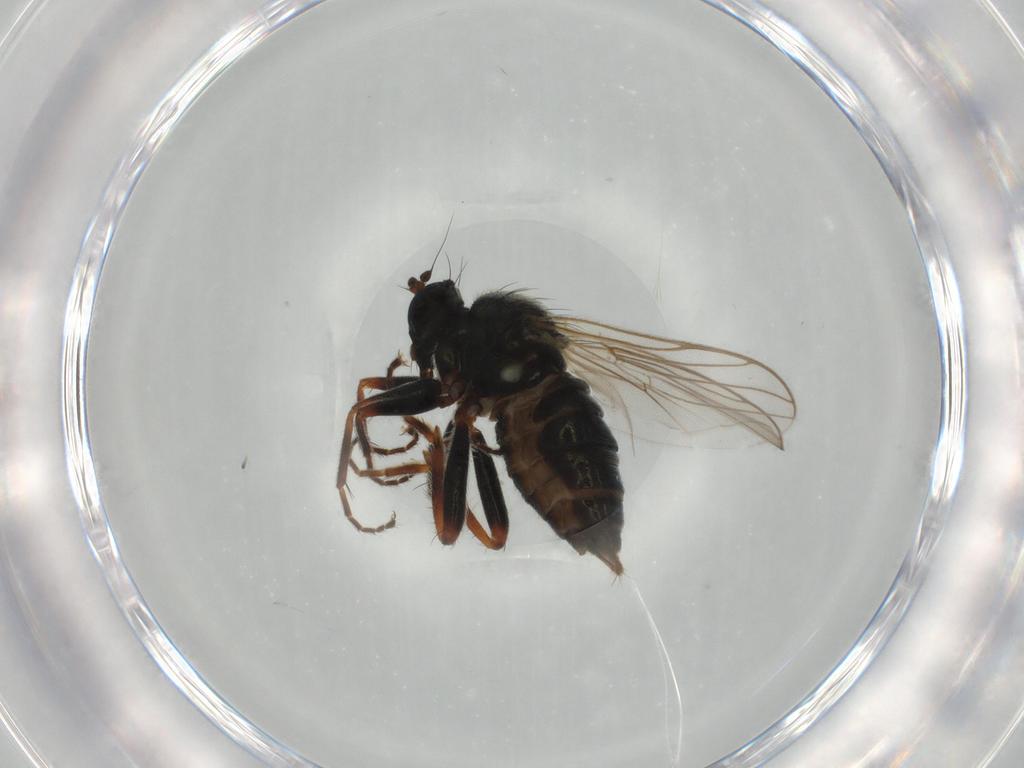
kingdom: Animalia
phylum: Arthropoda
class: Insecta
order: Diptera
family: Hybotidae
